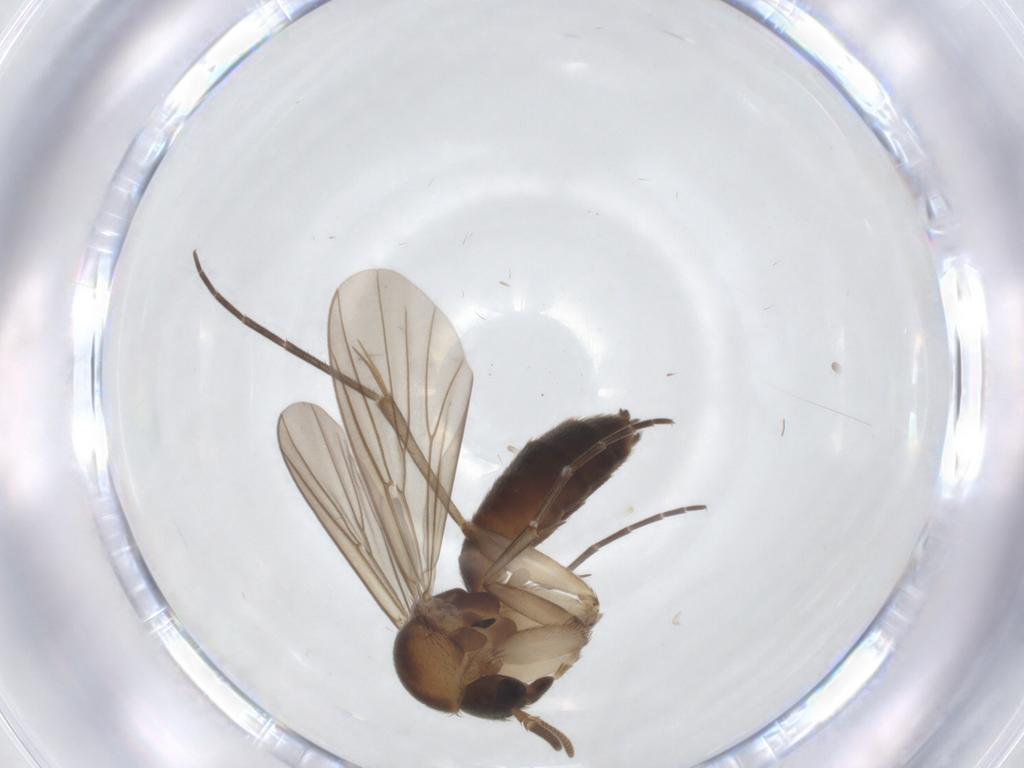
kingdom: Animalia
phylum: Arthropoda
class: Insecta
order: Diptera
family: Mycetophilidae
